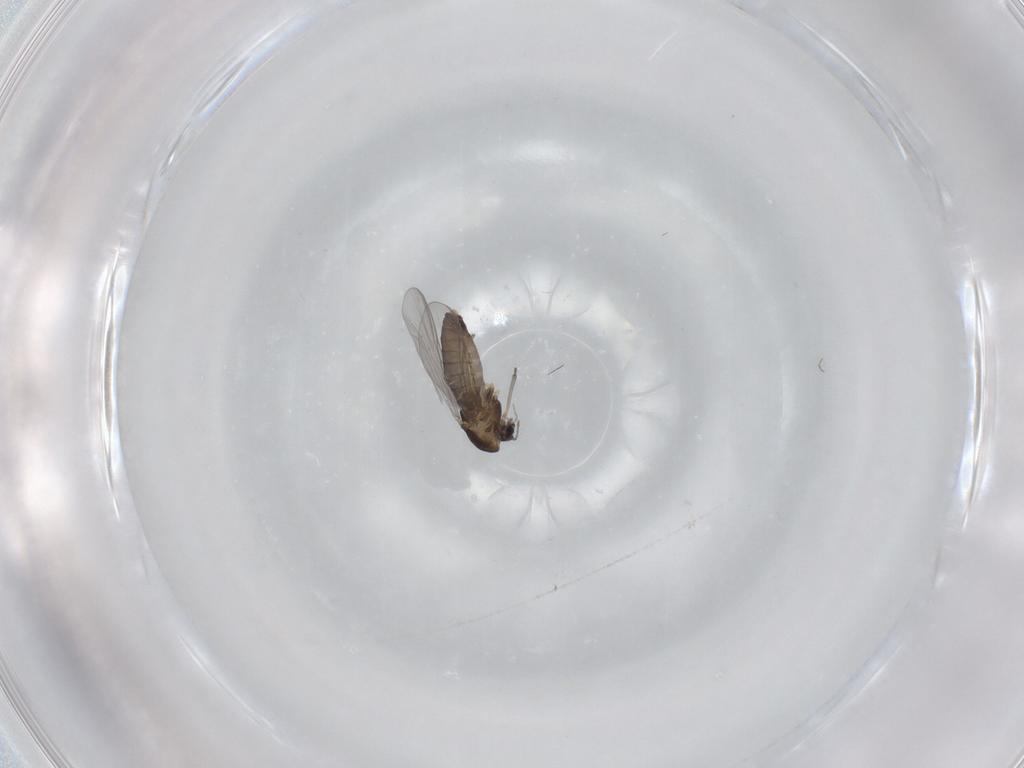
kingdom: Animalia
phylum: Arthropoda
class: Insecta
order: Diptera
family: Chironomidae
